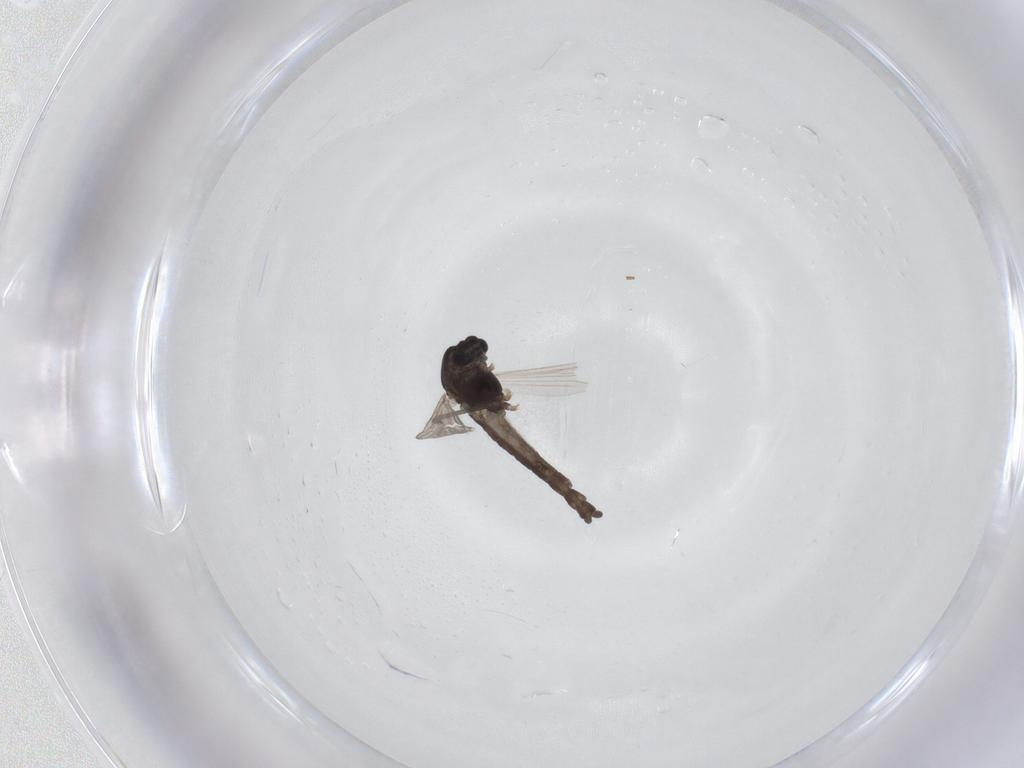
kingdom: Animalia
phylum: Arthropoda
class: Insecta
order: Diptera
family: Chironomidae
